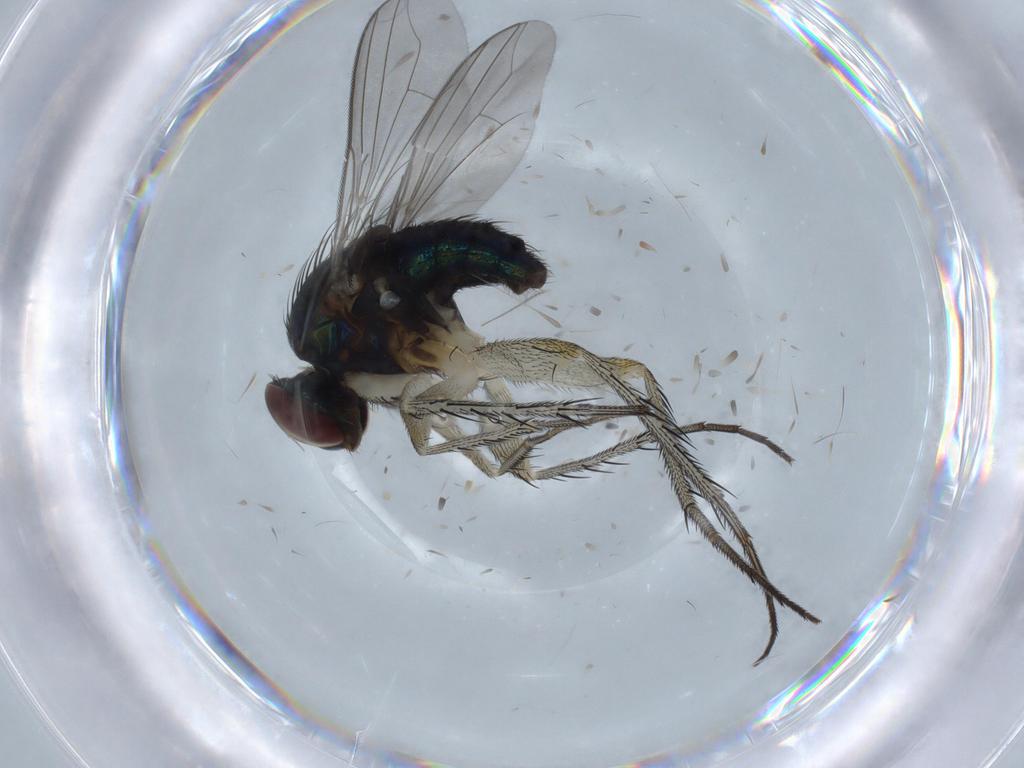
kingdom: Animalia
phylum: Arthropoda
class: Insecta
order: Diptera
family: Dolichopodidae
